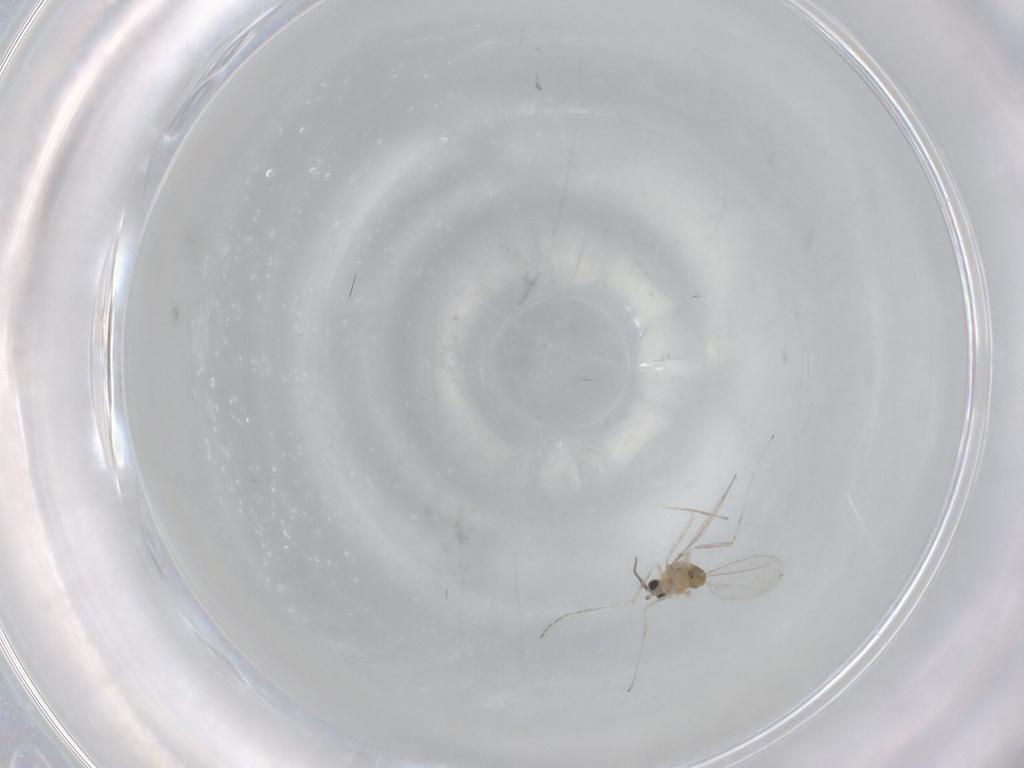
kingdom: Animalia
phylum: Arthropoda
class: Insecta
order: Diptera
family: Cecidomyiidae
